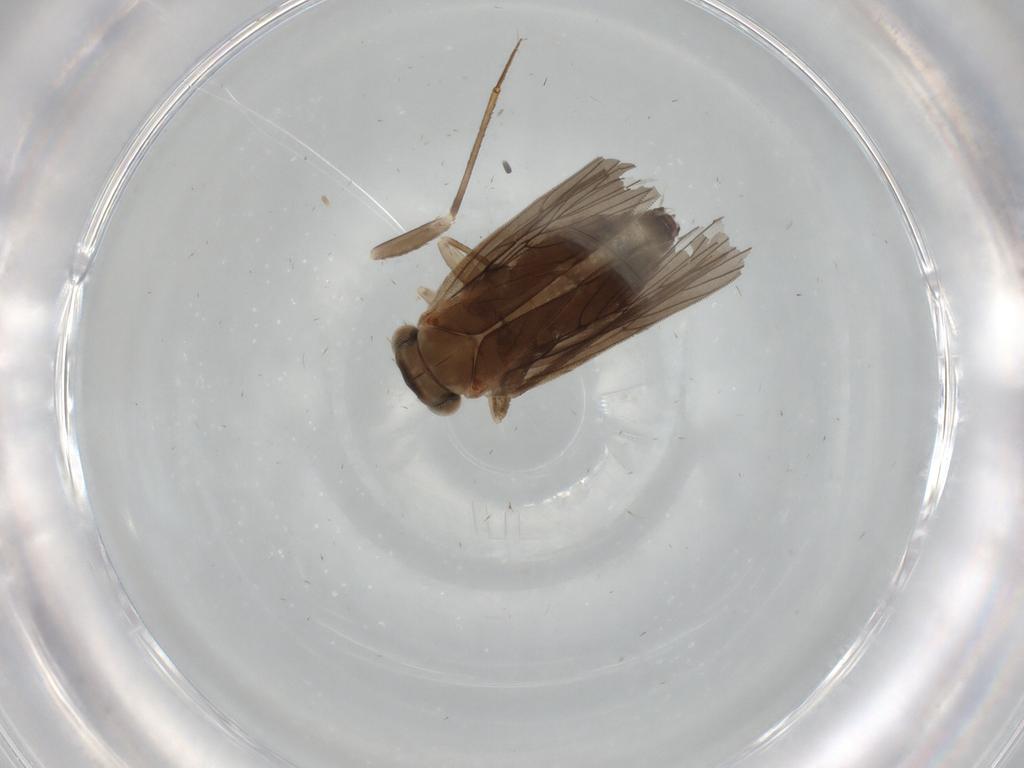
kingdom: Animalia
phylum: Arthropoda
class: Insecta
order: Psocodea
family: Lepidopsocidae
